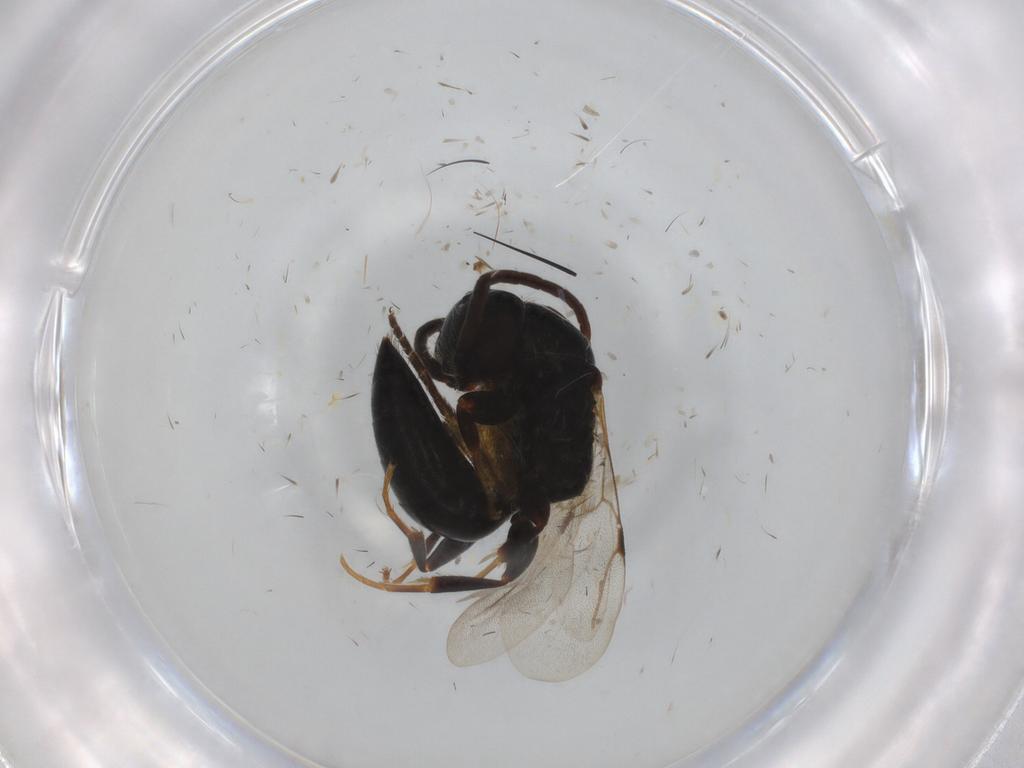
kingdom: Animalia
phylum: Arthropoda
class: Insecta
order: Hymenoptera
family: Bethylidae
